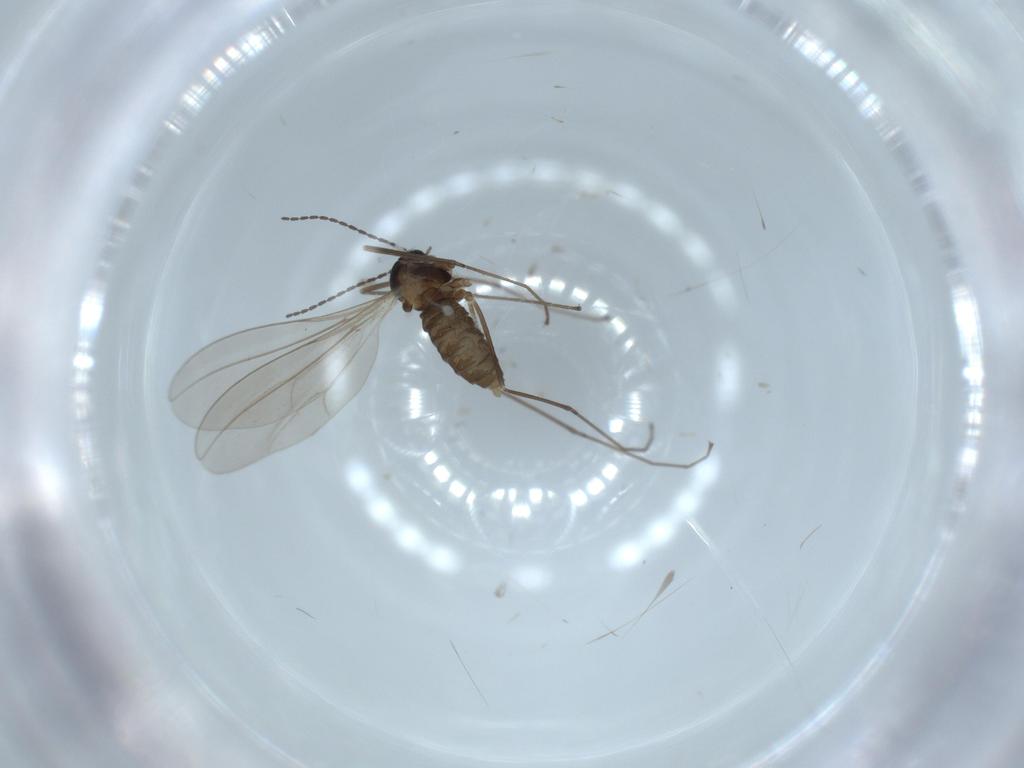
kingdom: Animalia
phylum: Arthropoda
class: Insecta
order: Diptera
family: Cecidomyiidae
